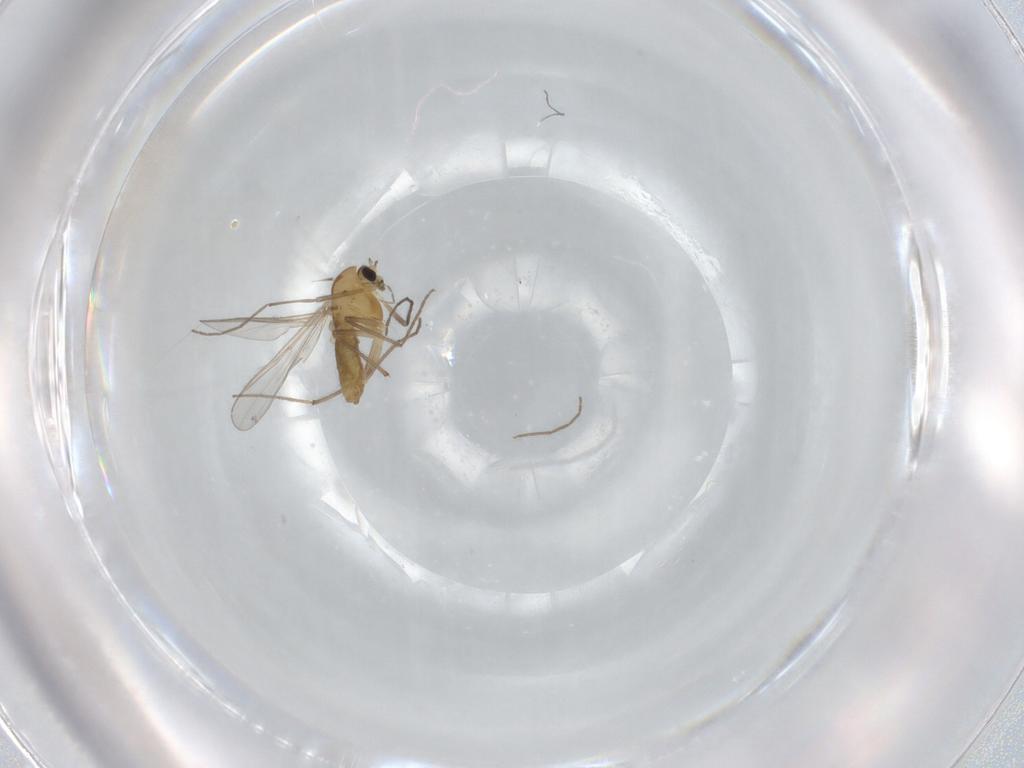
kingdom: Animalia
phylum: Arthropoda
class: Insecta
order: Diptera
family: Chironomidae
